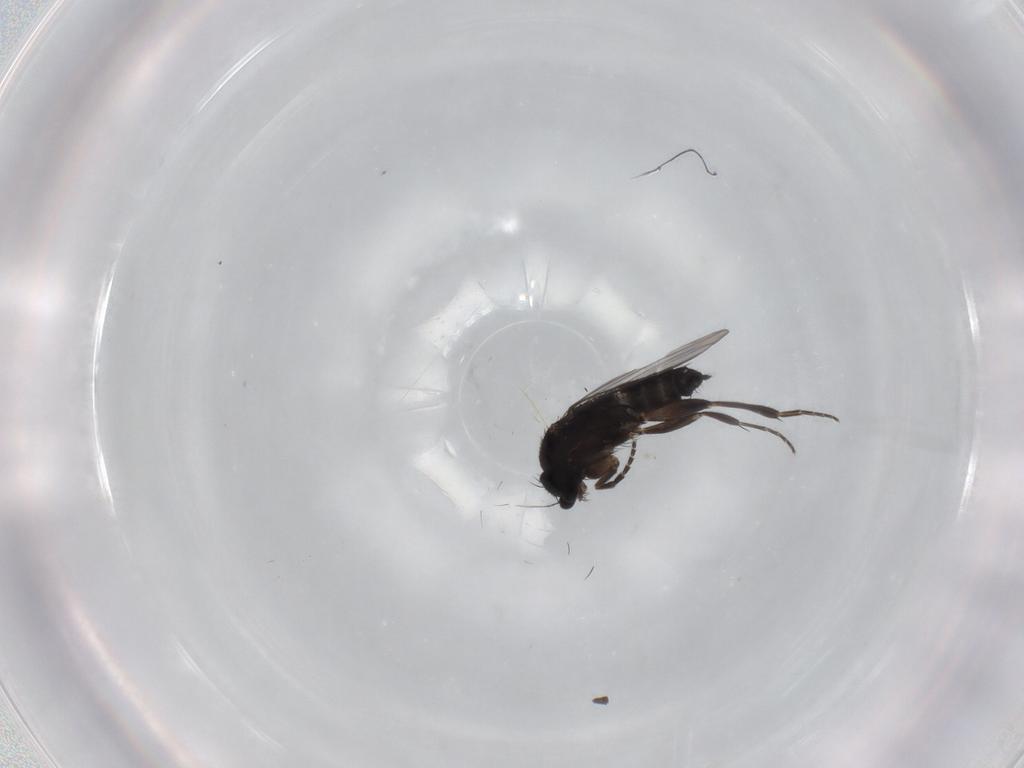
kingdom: Animalia
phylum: Arthropoda
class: Insecta
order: Diptera
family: Phoridae
